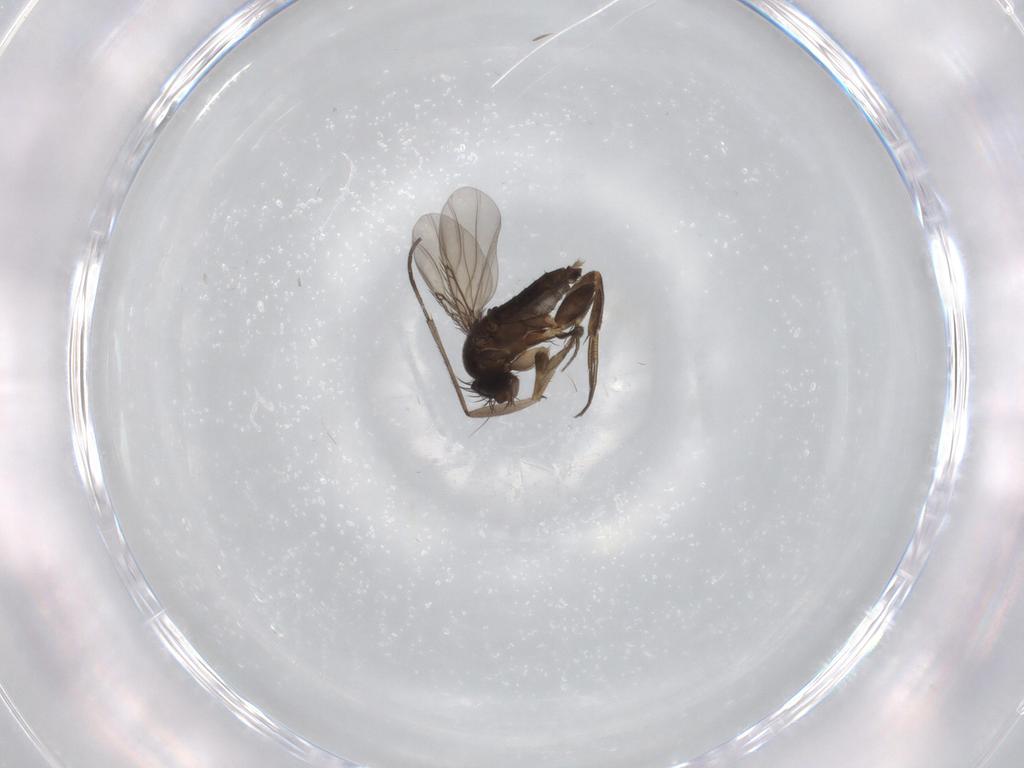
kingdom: Animalia
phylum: Arthropoda
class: Insecta
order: Diptera
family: Phoridae
